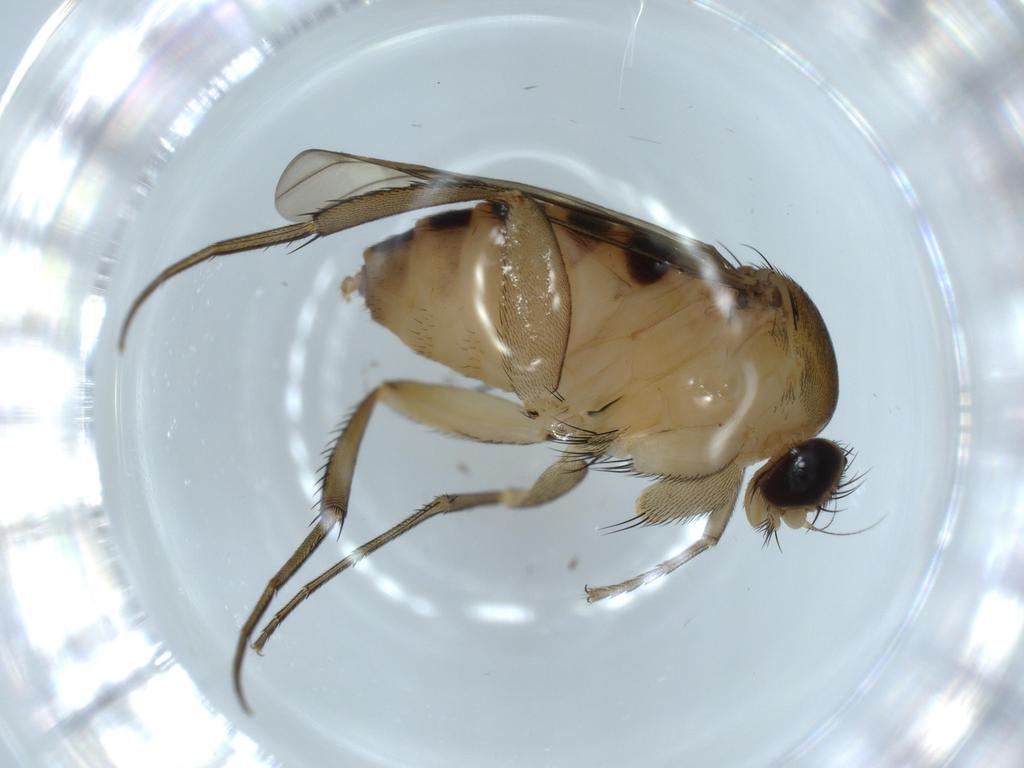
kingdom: Animalia
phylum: Arthropoda
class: Insecta
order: Diptera
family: Sciaridae
